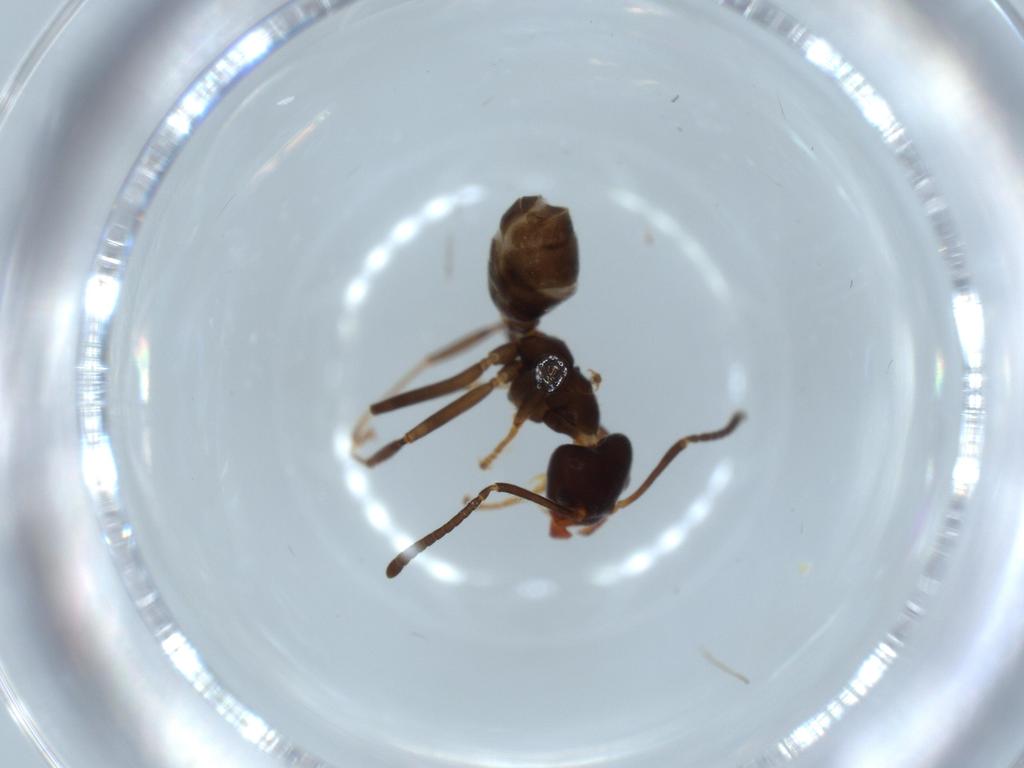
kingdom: Animalia
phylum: Arthropoda
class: Insecta
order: Hymenoptera
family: Formicidae
